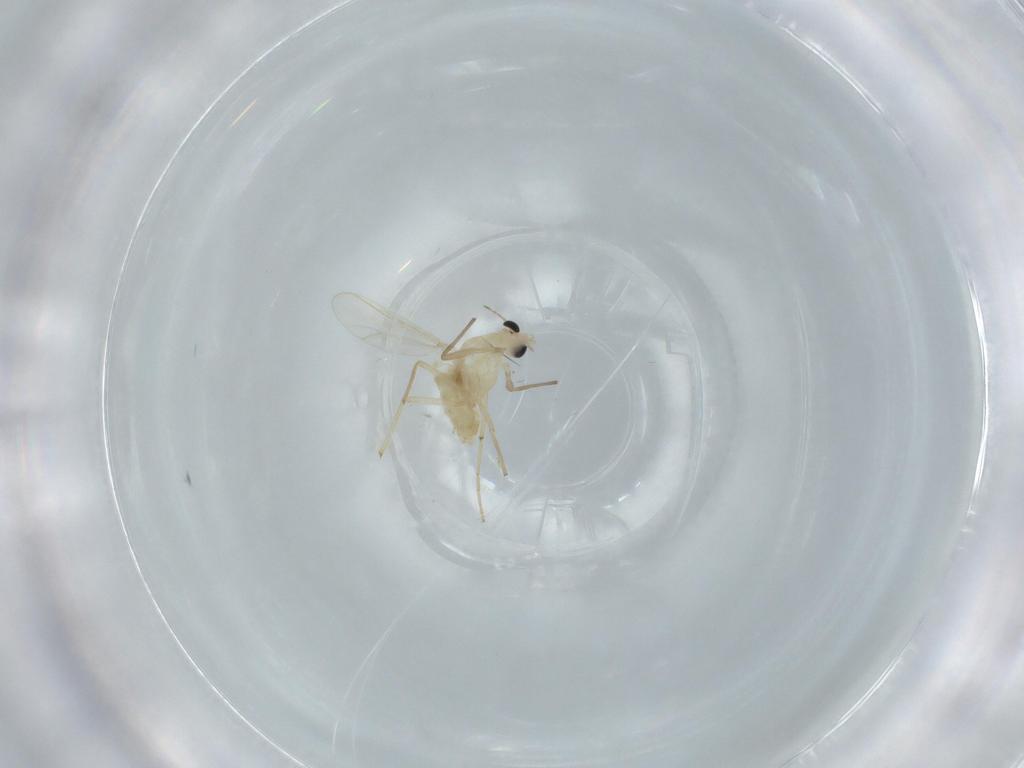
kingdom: Animalia
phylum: Arthropoda
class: Insecta
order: Diptera
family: Chironomidae
